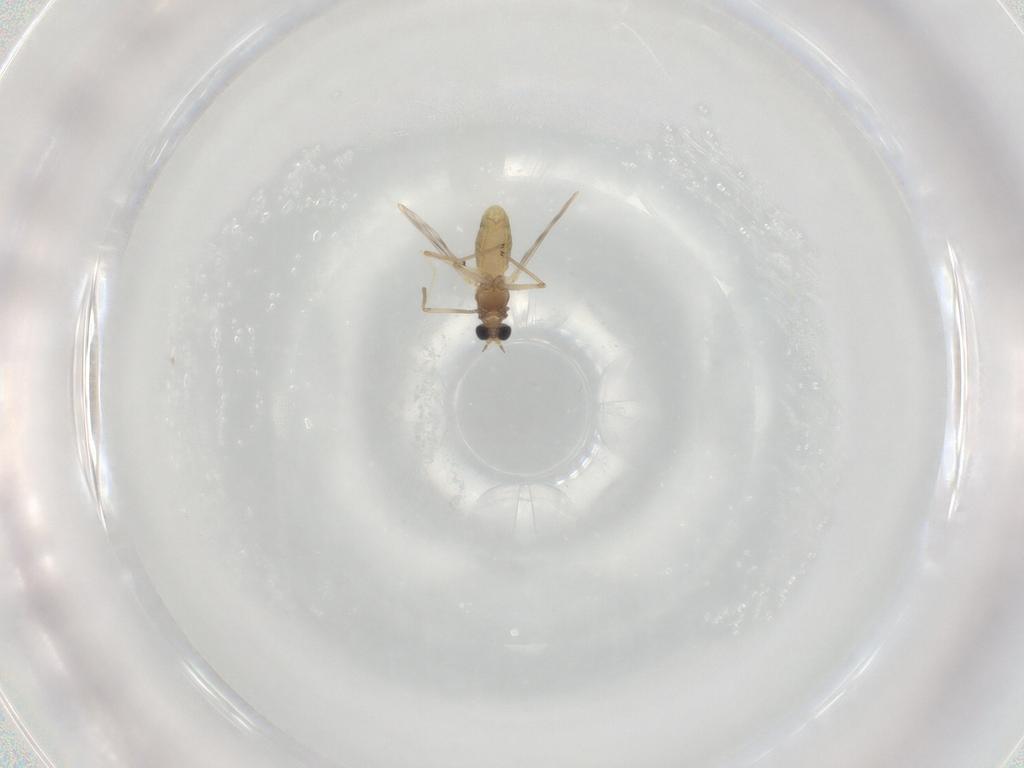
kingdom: Animalia
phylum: Arthropoda
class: Insecta
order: Diptera
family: Chironomidae
